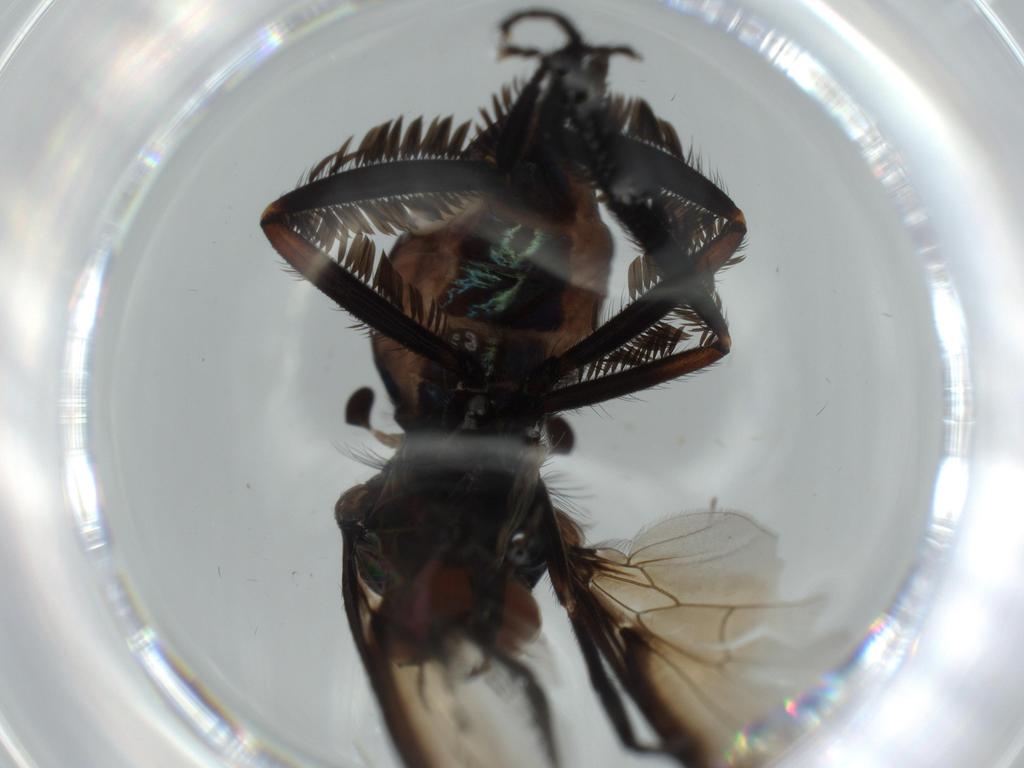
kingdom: Animalia
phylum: Arthropoda
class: Insecta
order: Diptera
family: Phoridae
